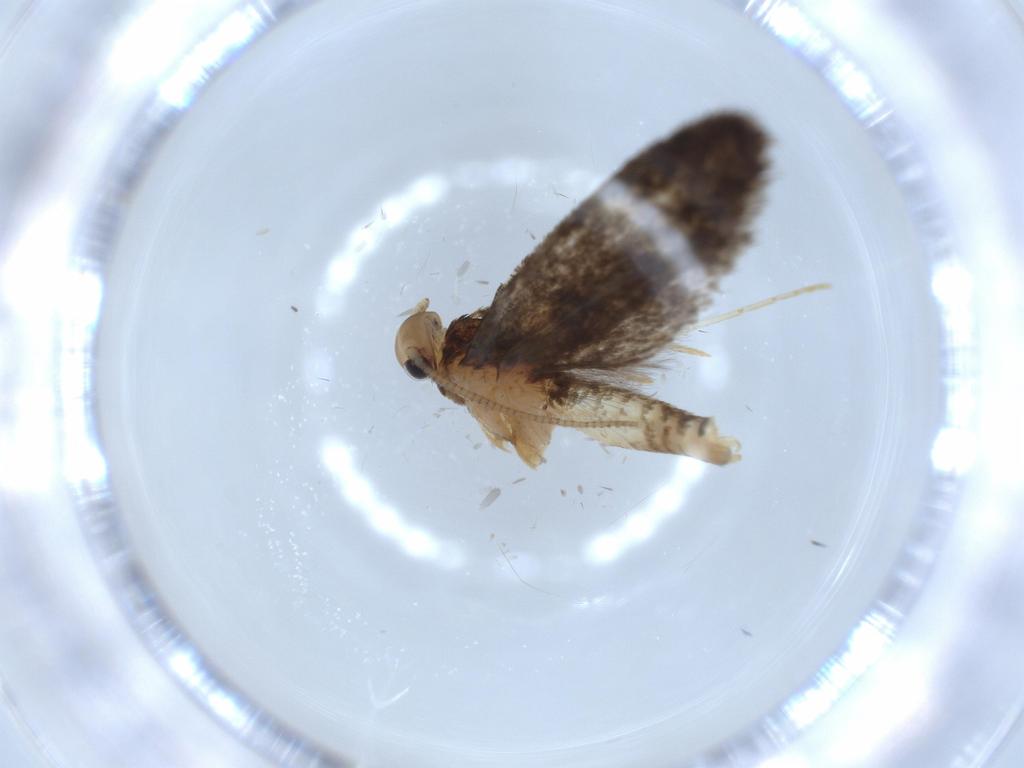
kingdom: Animalia
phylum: Arthropoda
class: Insecta
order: Lepidoptera
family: Tineidae
